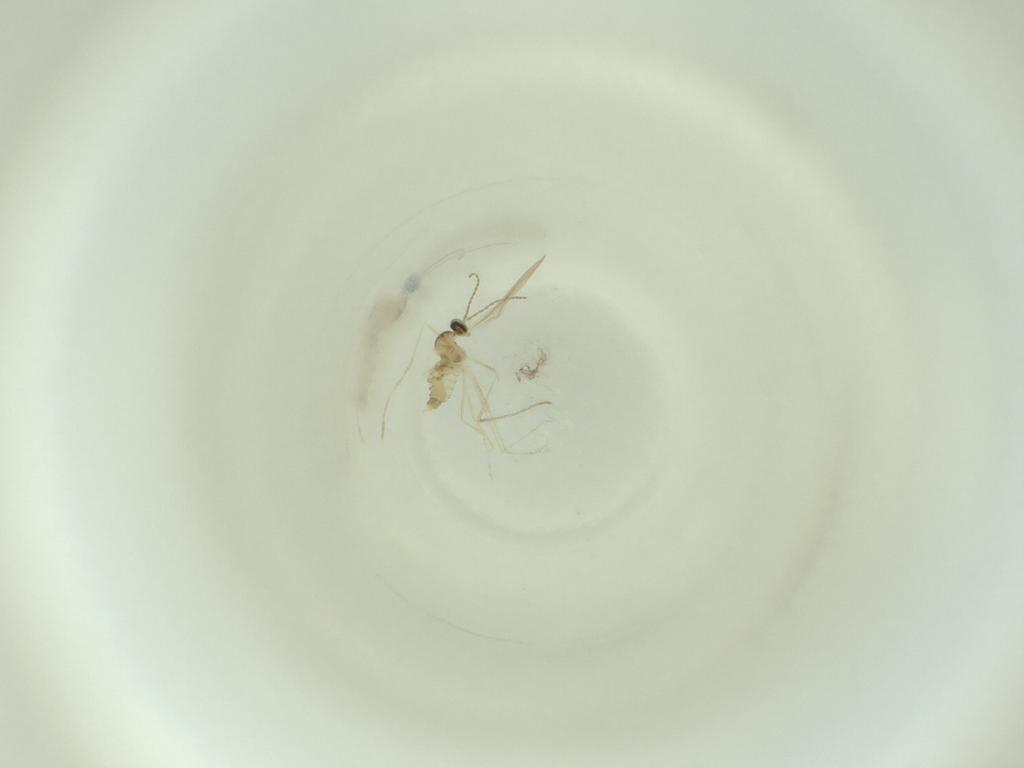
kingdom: Animalia
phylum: Arthropoda
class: Insecta
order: Diptera
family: Cecidomyiidae
